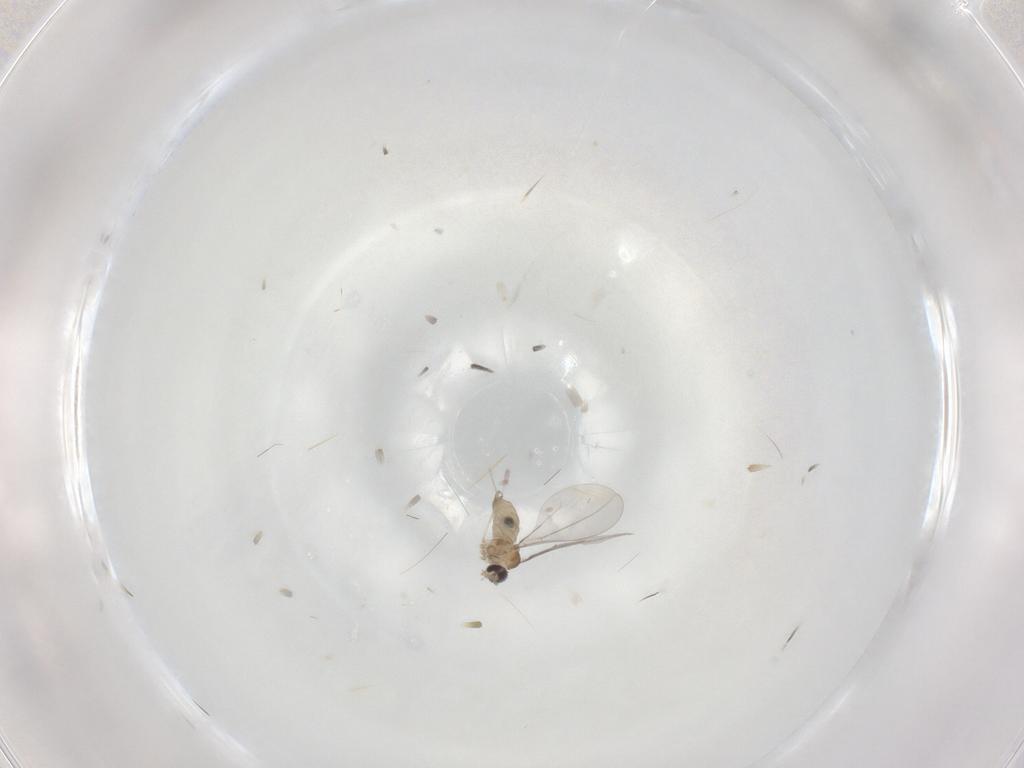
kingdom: Animalia
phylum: Arthropoda
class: Insecta
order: Diptera
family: Cecidomyiidae
